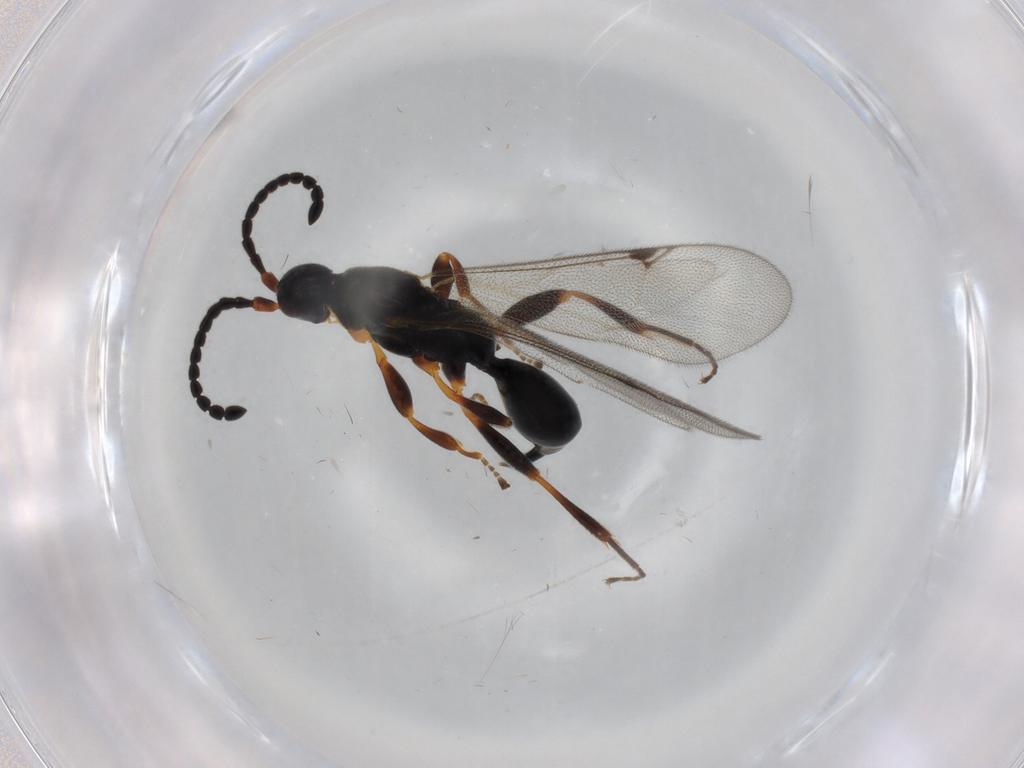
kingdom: Animalia
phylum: Arthropoda
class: Insecta
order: Hymenoptera
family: Proctotrupidae
